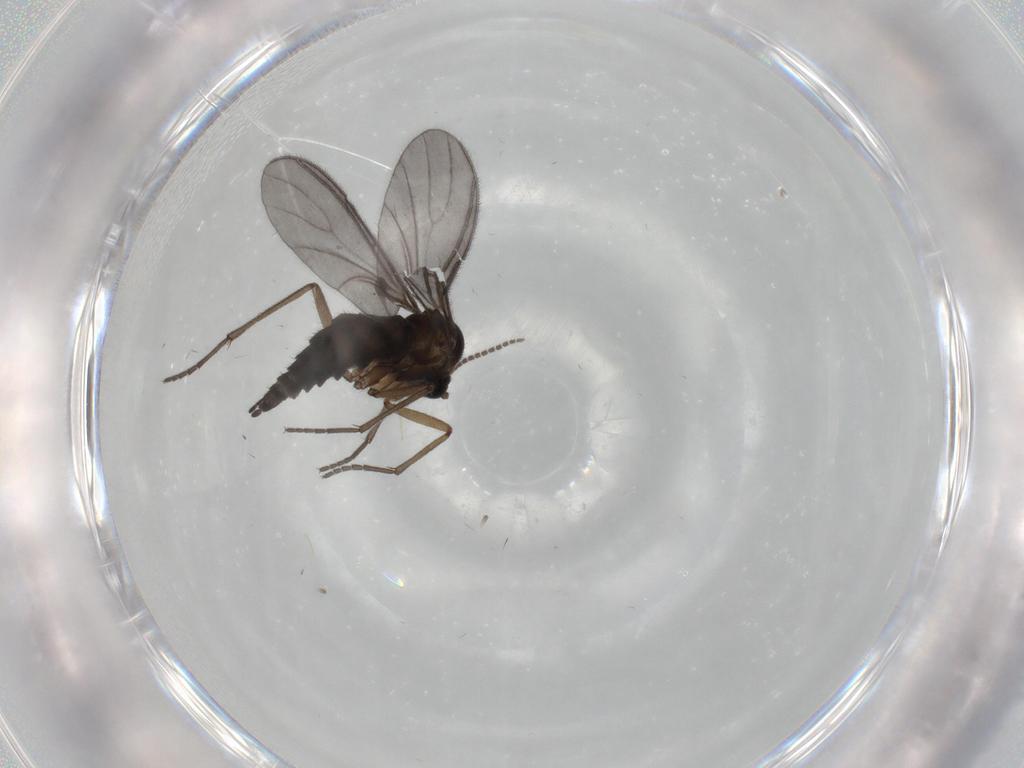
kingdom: Animalia
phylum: Arthropoda
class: Insecta
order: Diptera
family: Sciaridae
